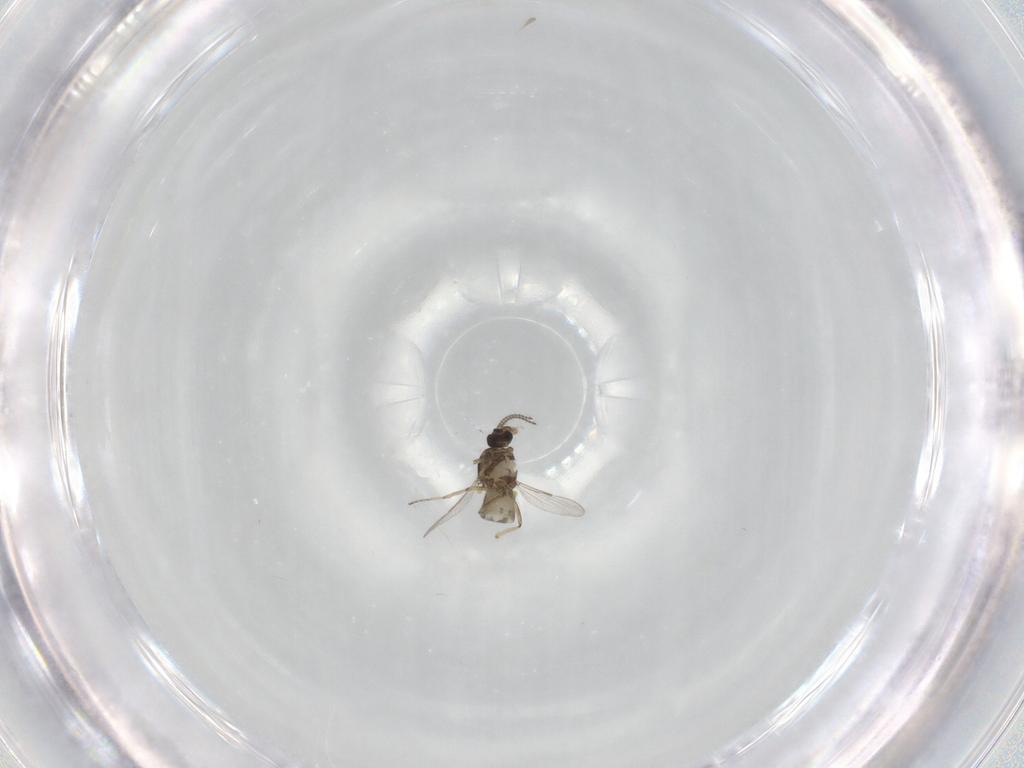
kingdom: Animalia
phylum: Arthropoda
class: Insecta
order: Diptera
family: Ceratopogonidae
